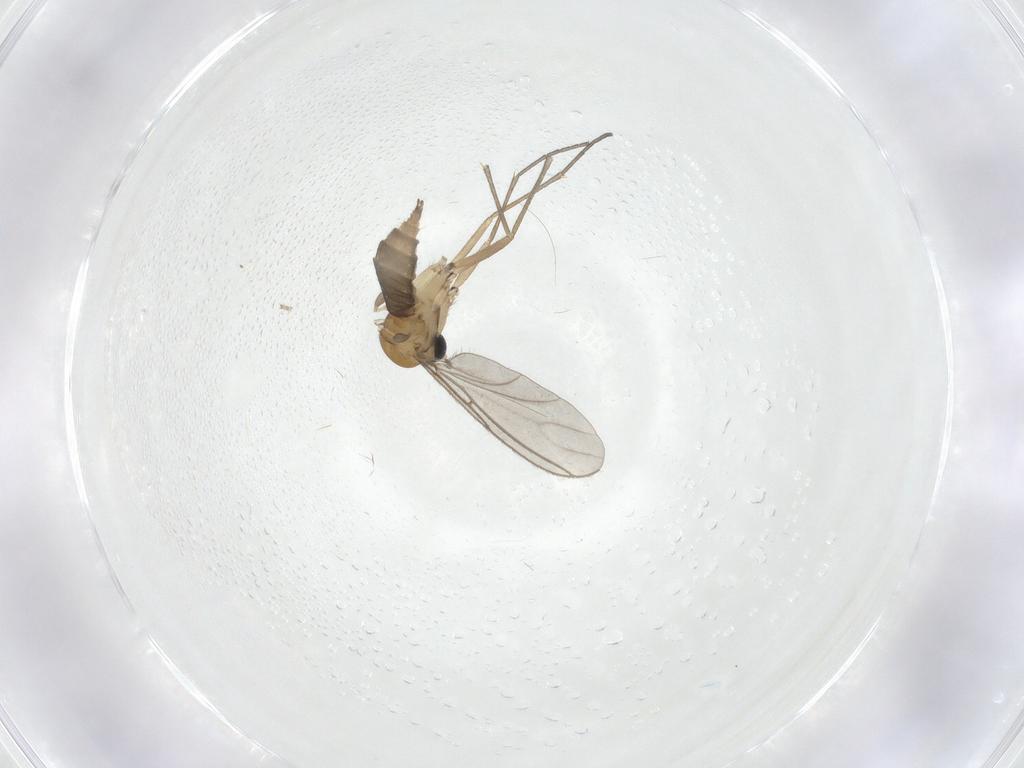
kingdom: Animalia
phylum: Arthropoda
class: Insecta
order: Diptera
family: Sciaridae
